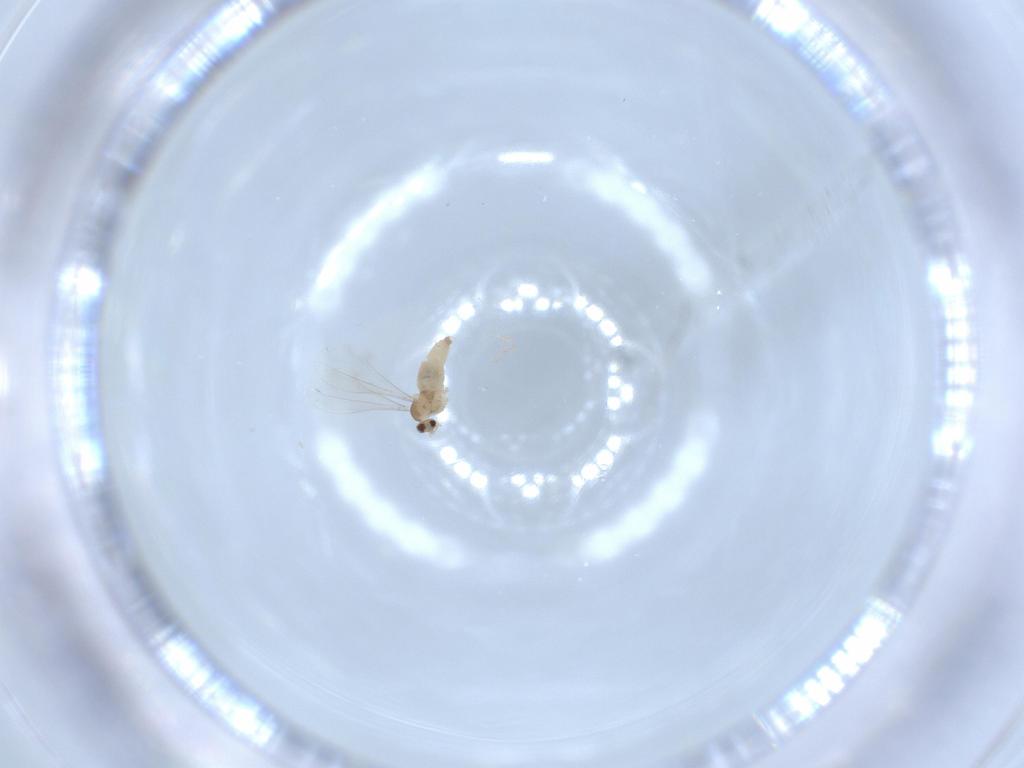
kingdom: Animalia
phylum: Arthropoda
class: Insecta
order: Diptera
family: Cecidomyiidae
